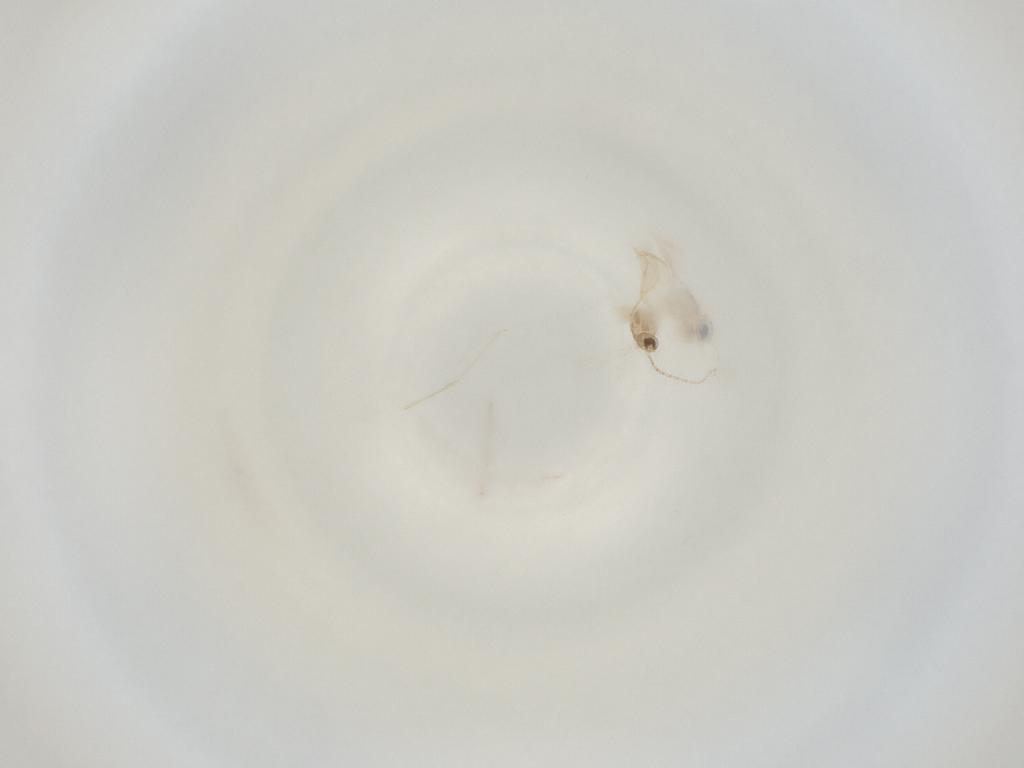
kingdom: Animalia
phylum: Arthropoda
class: Insecta
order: Diptera
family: Cecidomyiidae
